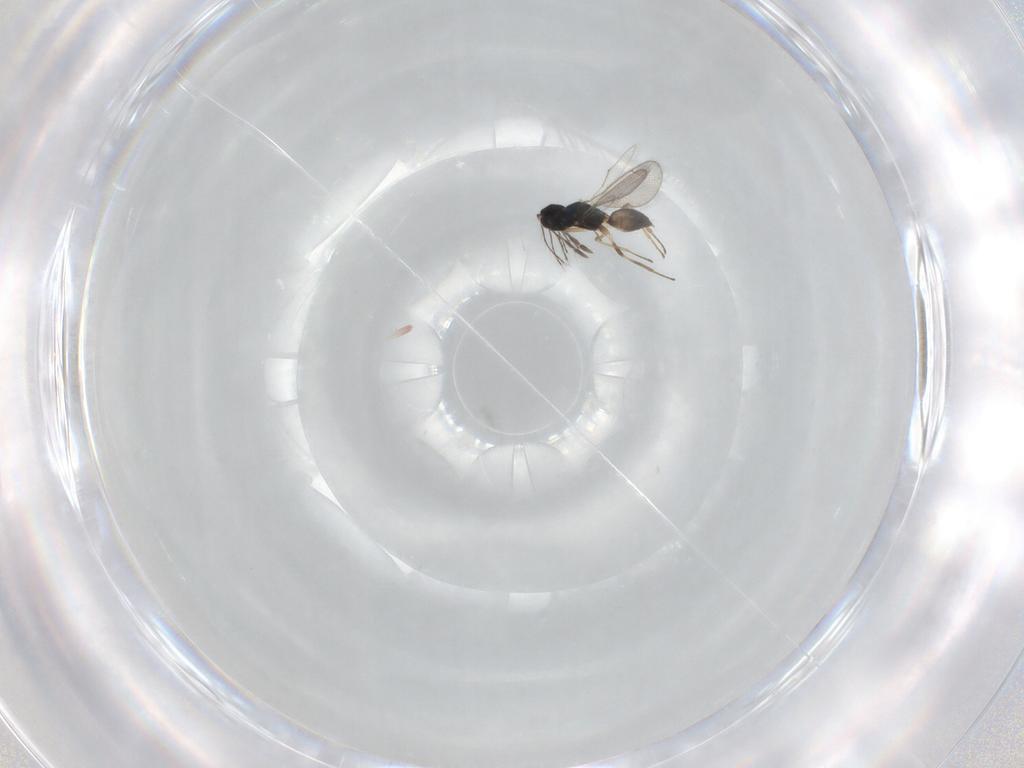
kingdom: Animalia
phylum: Arthropoda
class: Insecta
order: Hymenoptera
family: Eulophidae
